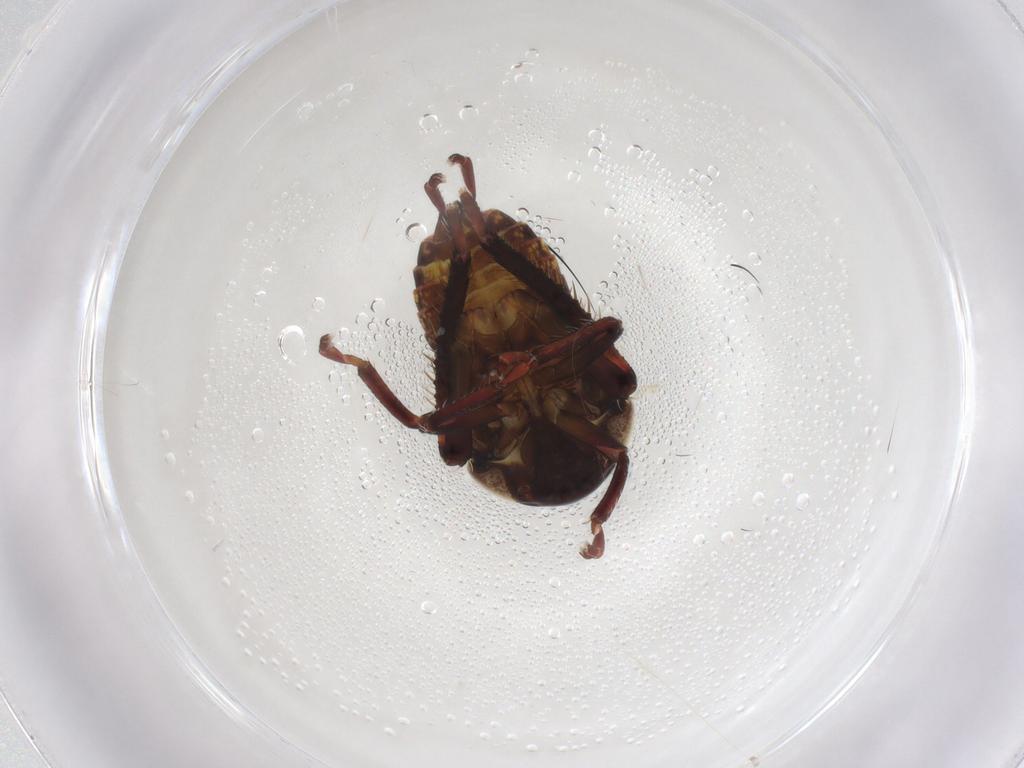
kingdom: Animalia
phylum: Arthropoda
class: Insecta
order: Hemiptera
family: Cicadellidae
